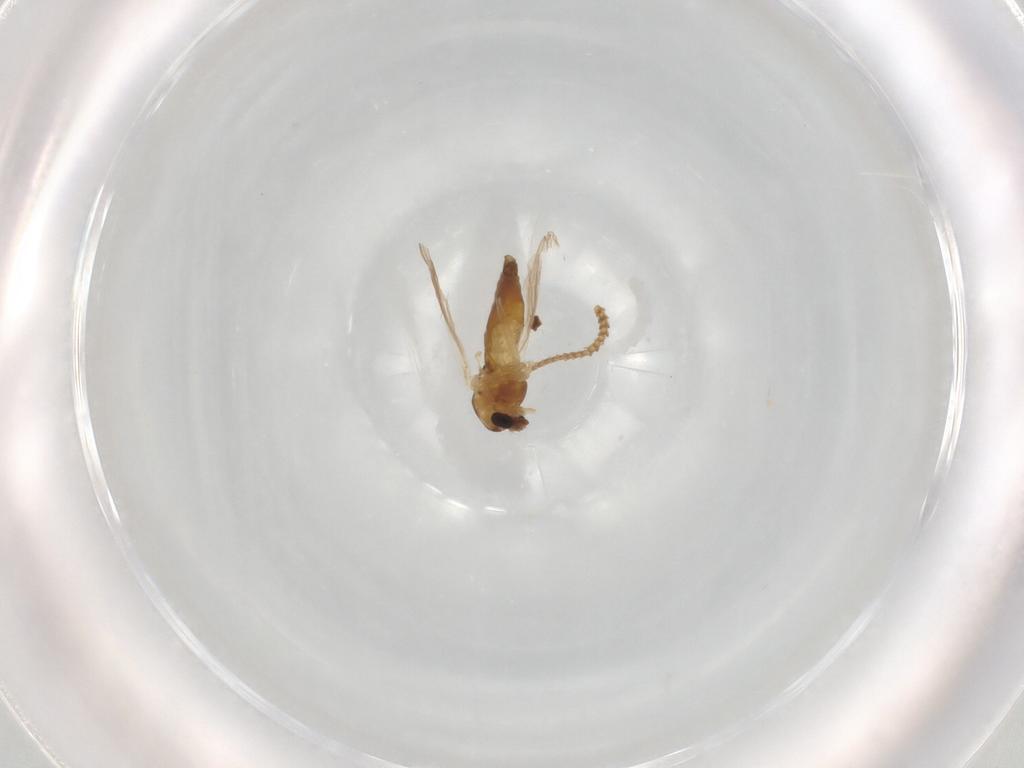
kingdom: Animalia
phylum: Arthropoda
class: Insecta
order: Diptera
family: Chironomidae
